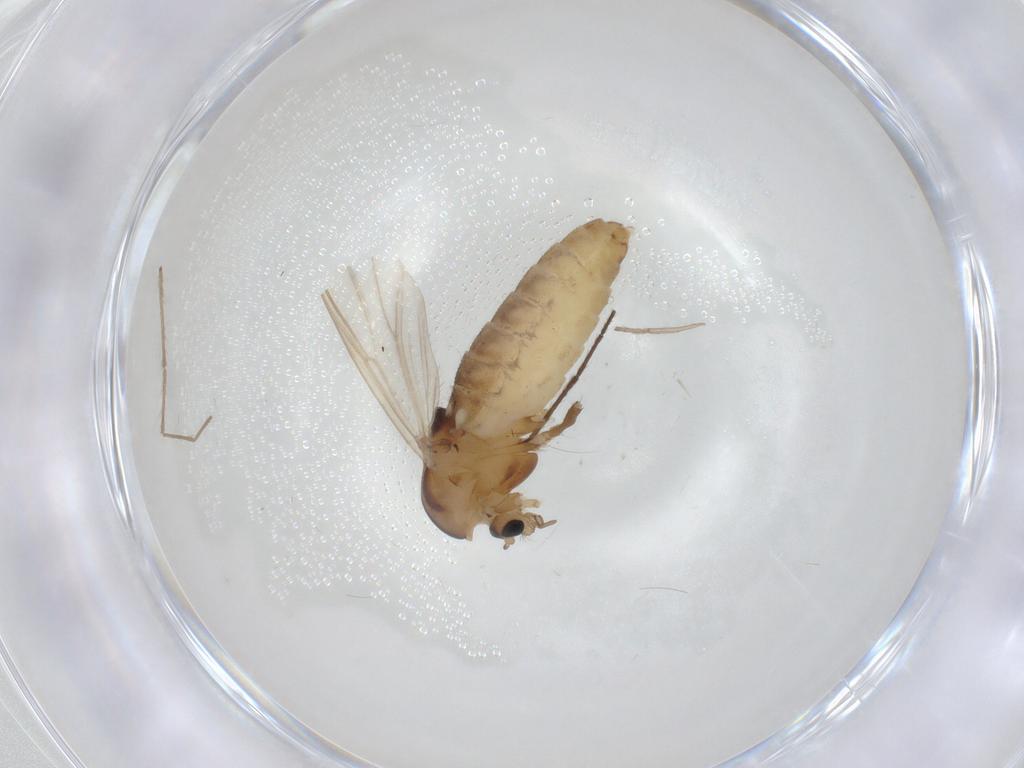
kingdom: Animalia
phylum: Arthropoda
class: Insecta
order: Diptera
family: Chironomidae
